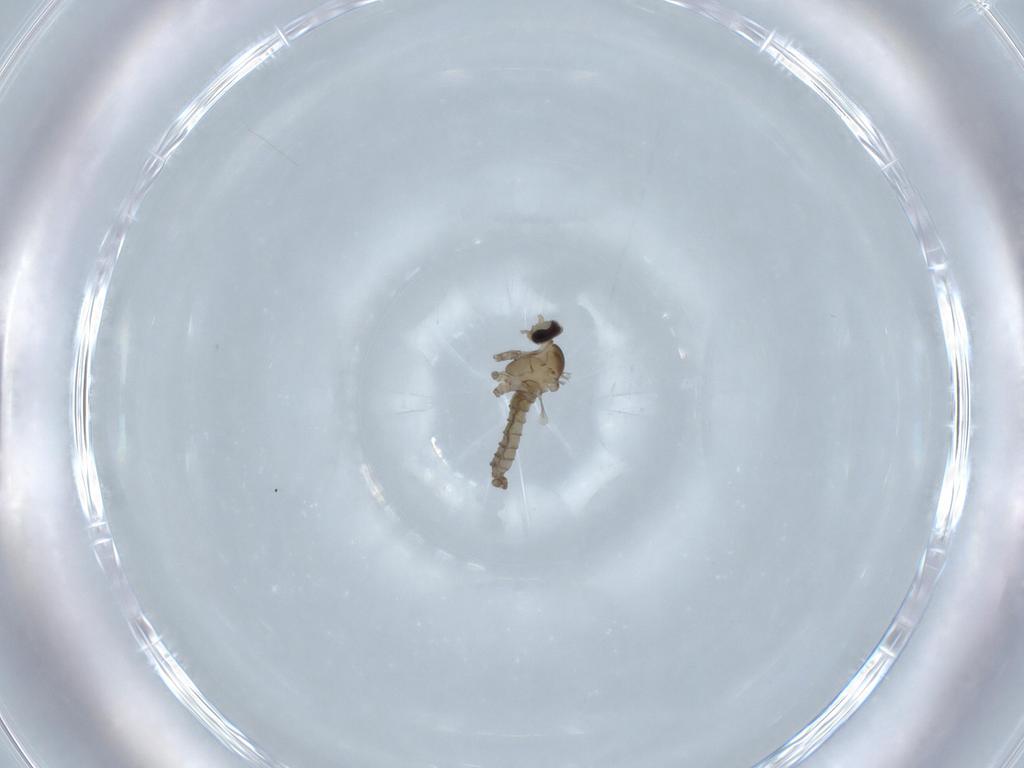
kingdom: Animalia
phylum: Arthropoda
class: Insecta
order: Diptera
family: Cecidomyiidae
